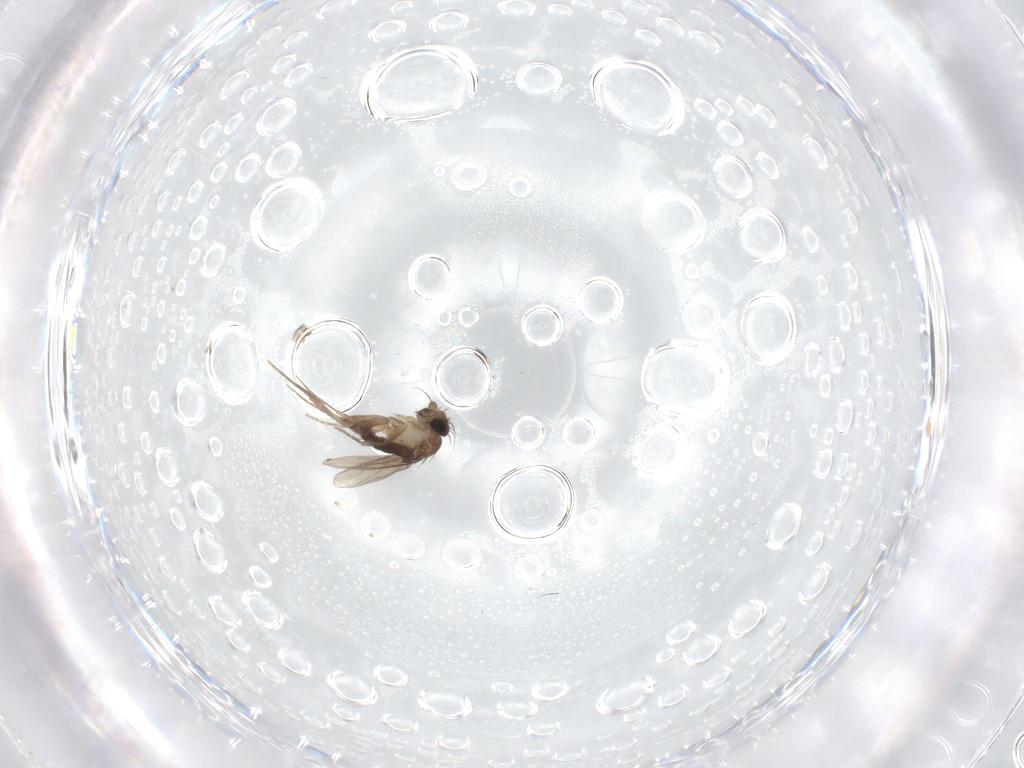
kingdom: Animalia
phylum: Arthropoda
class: Insecta
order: Diptera
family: Phoridae
